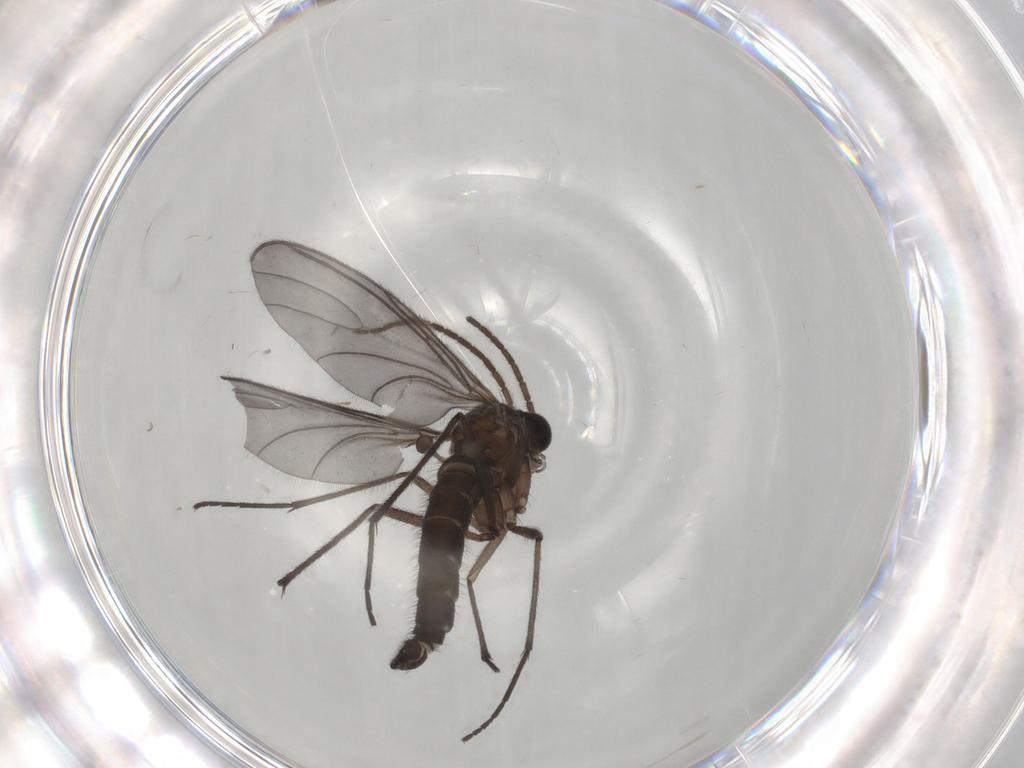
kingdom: Animalia
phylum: Arthropoda
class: Insecta
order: Diptera
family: Sciaridae
